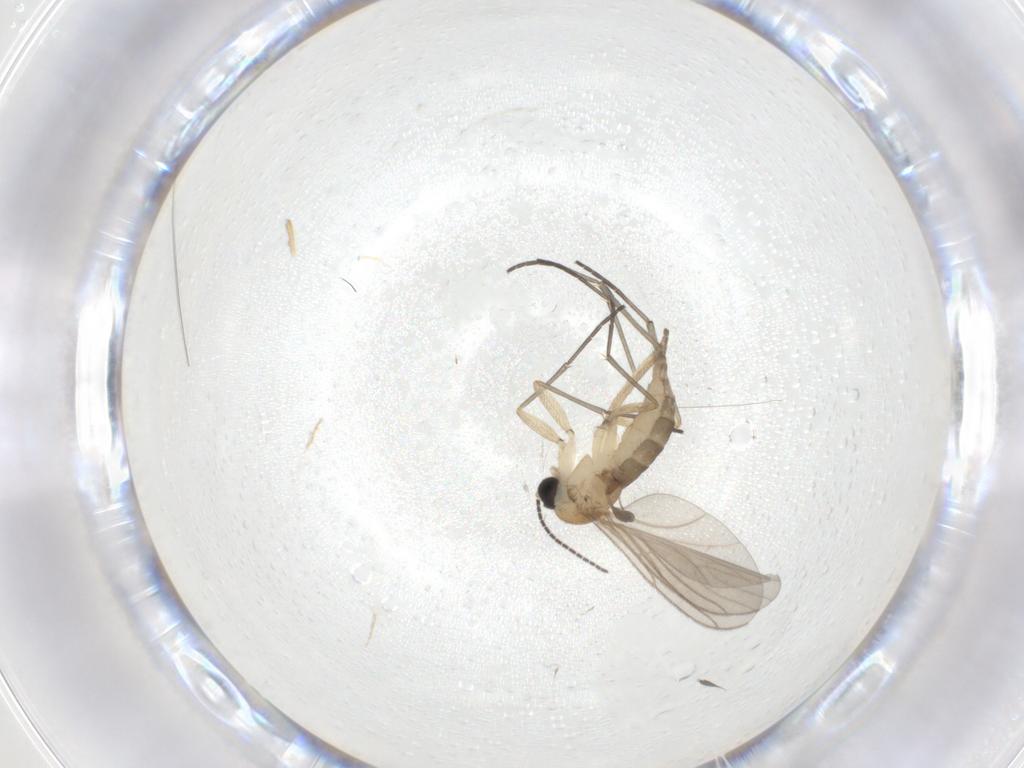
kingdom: Animalia
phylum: Arthropoda
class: Insecta
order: Diptera
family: Sciaridae
